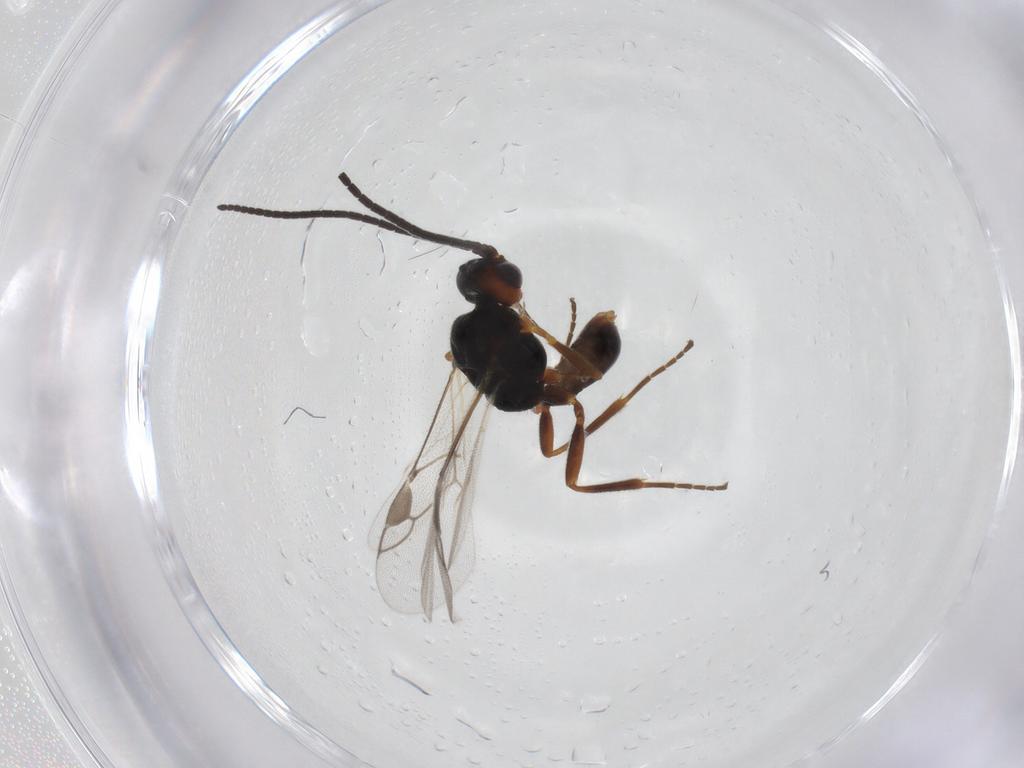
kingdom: Animalia
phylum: Arthropoda
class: Insecta
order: Hymenoptera
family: Braconidae
